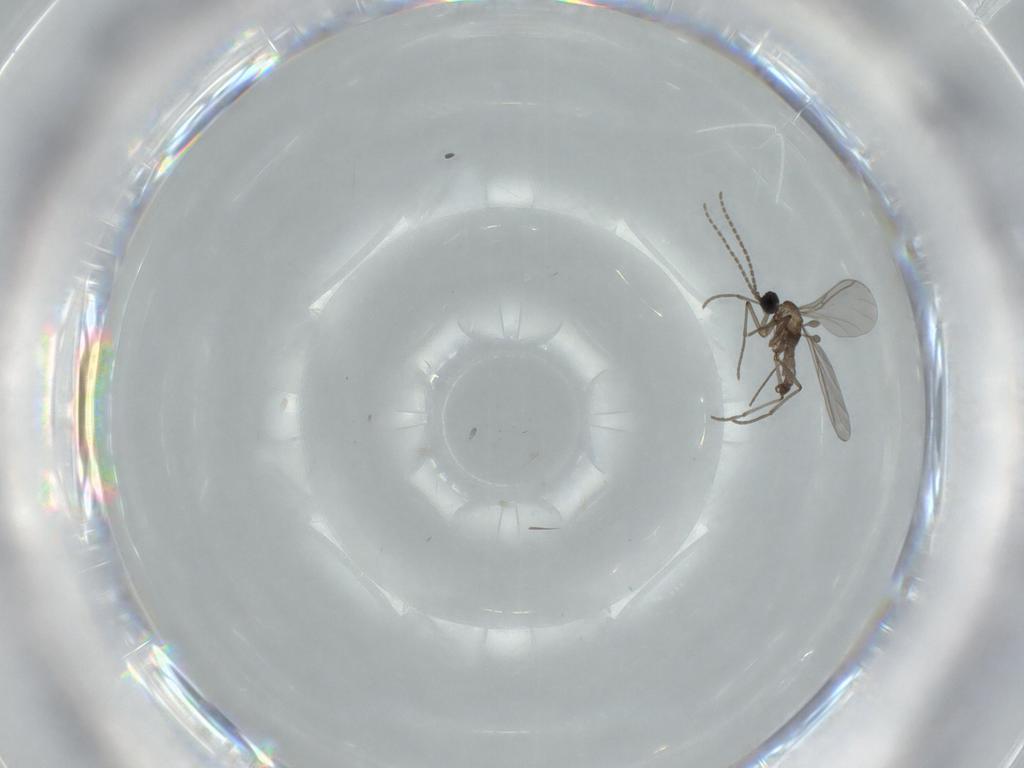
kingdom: Animalia
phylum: Arthropoda
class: Insecta
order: Diptera
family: Sciaridae
